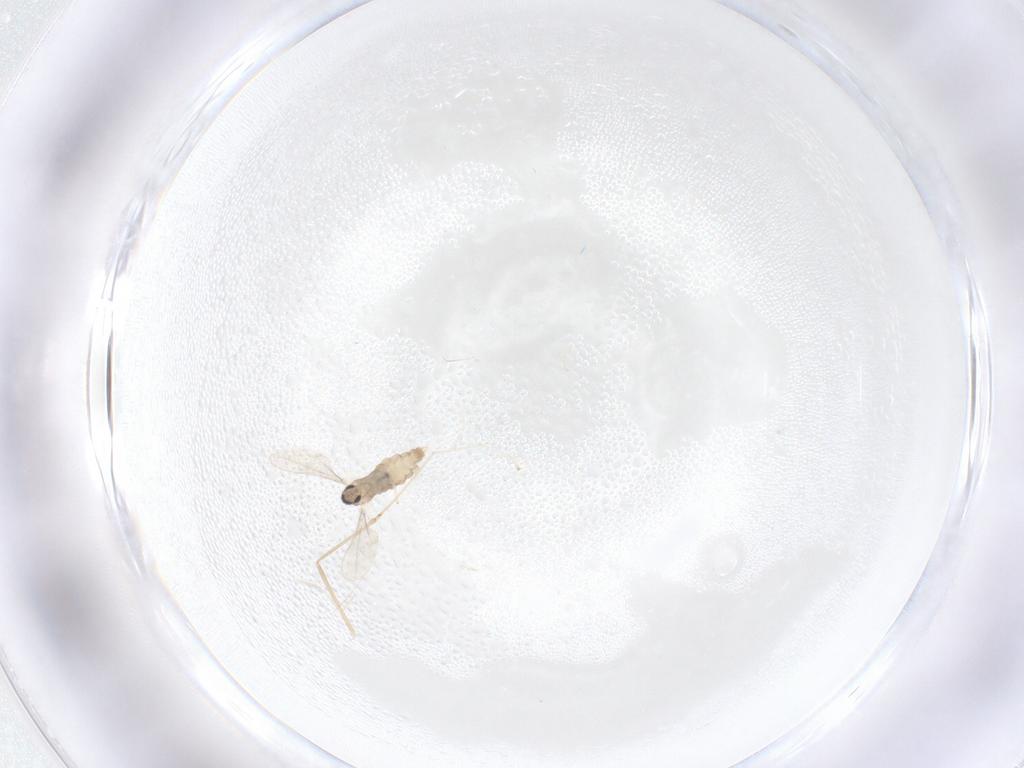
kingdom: Animalia
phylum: Arthropoda
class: Insecta
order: Diptera
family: Cecidomyiidae
